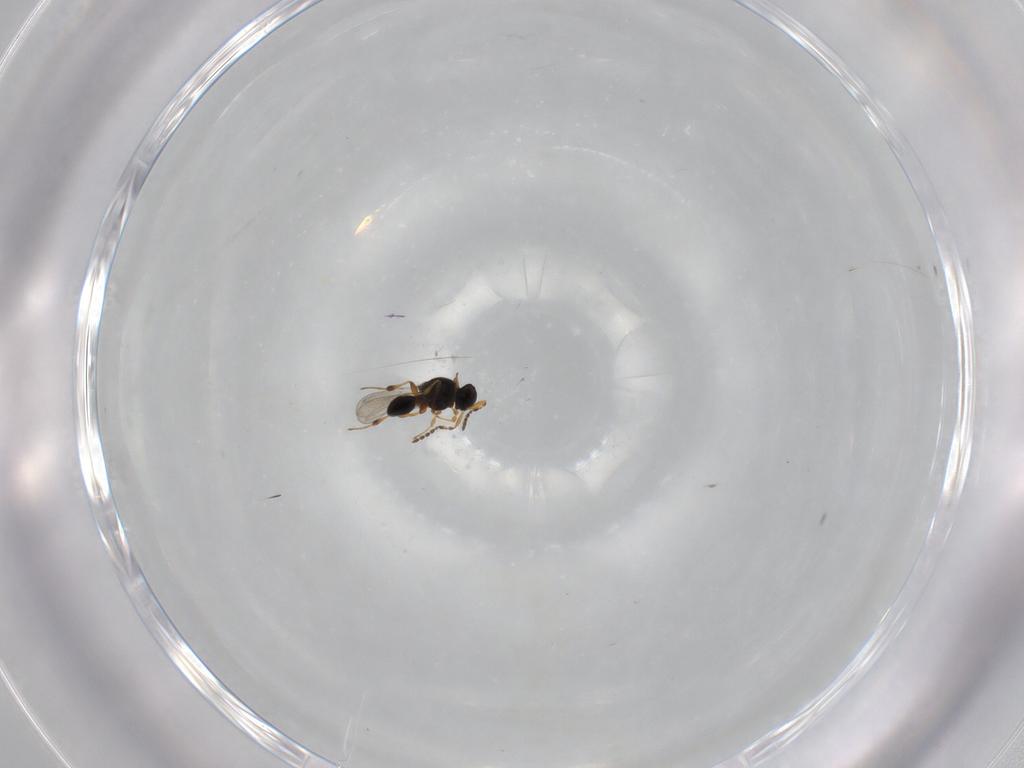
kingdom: Animalia
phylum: Arthropoda
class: Insecta
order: Hymenoptera
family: Platygastridae
